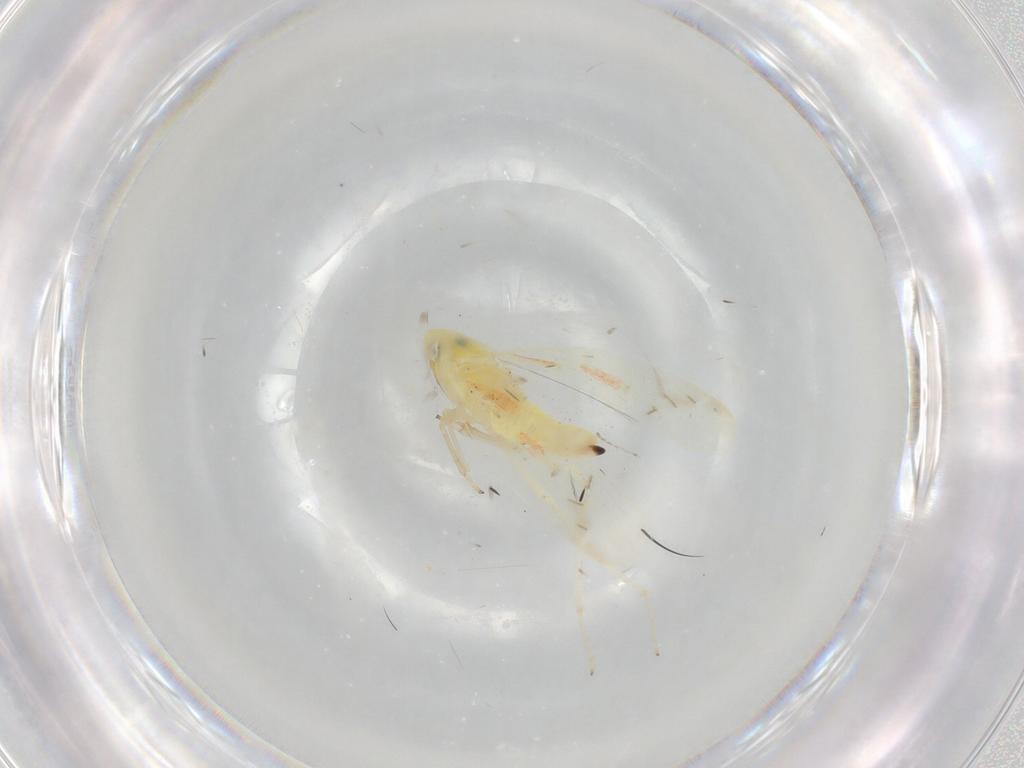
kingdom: Animalia
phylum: Arthropoda
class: Insecta
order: Hemiptera
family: Cicadellidae
